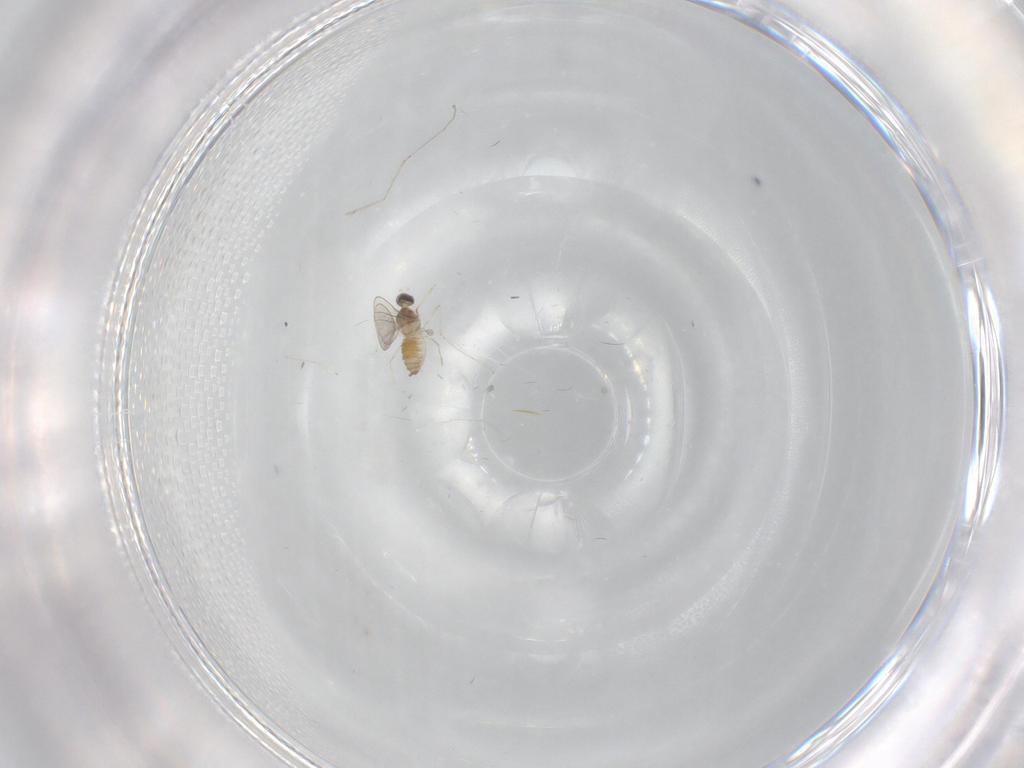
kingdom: Animalia
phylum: Arthropoda
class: Insecta
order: Diptera
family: Cecidomyiidae
